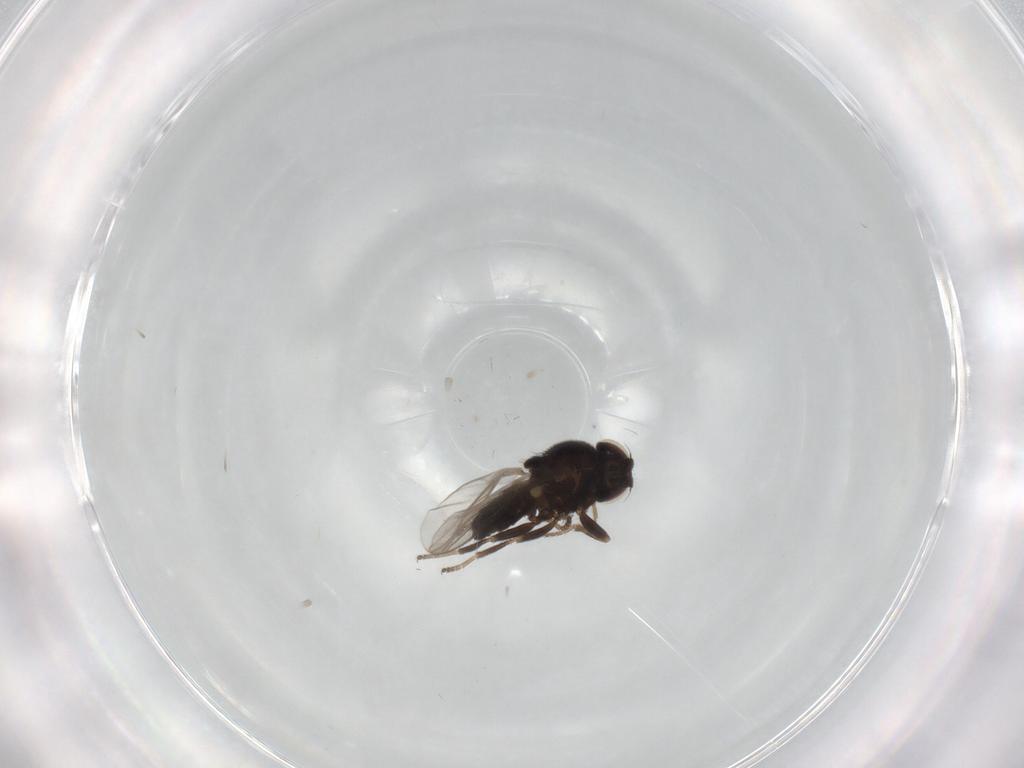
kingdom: Animalia
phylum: Arthropoda
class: Insecta
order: Diptera
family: Chloropidae
